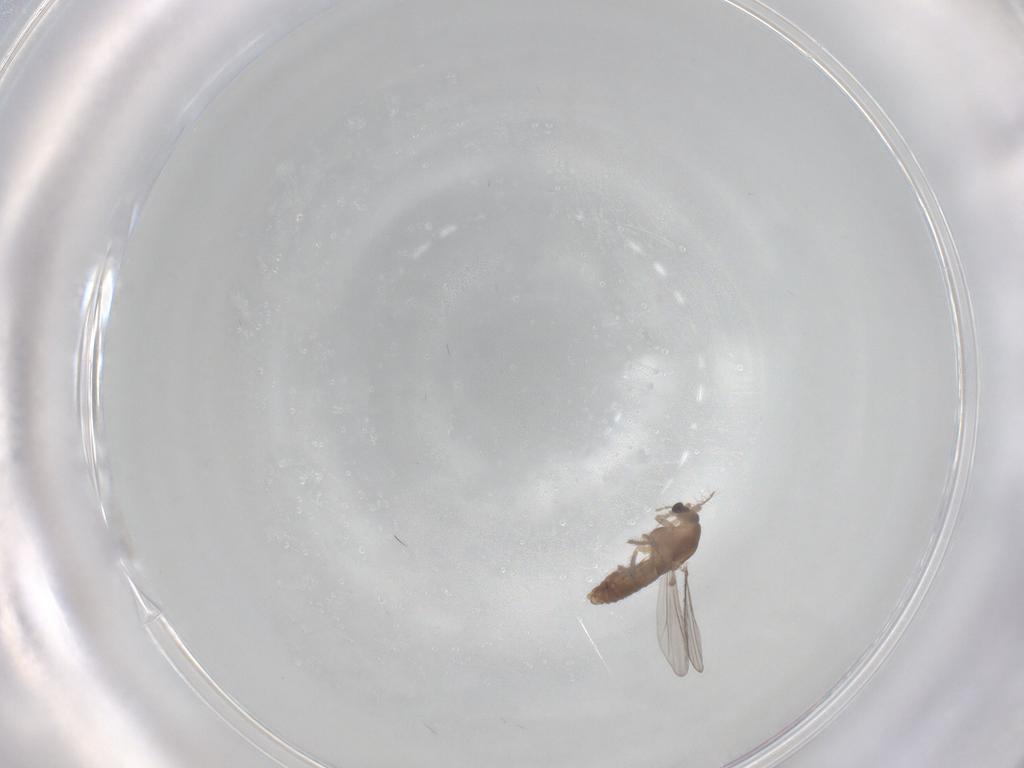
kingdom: Animalia
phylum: Arthropoda
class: Insecta
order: Diptera
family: Chironomidae
